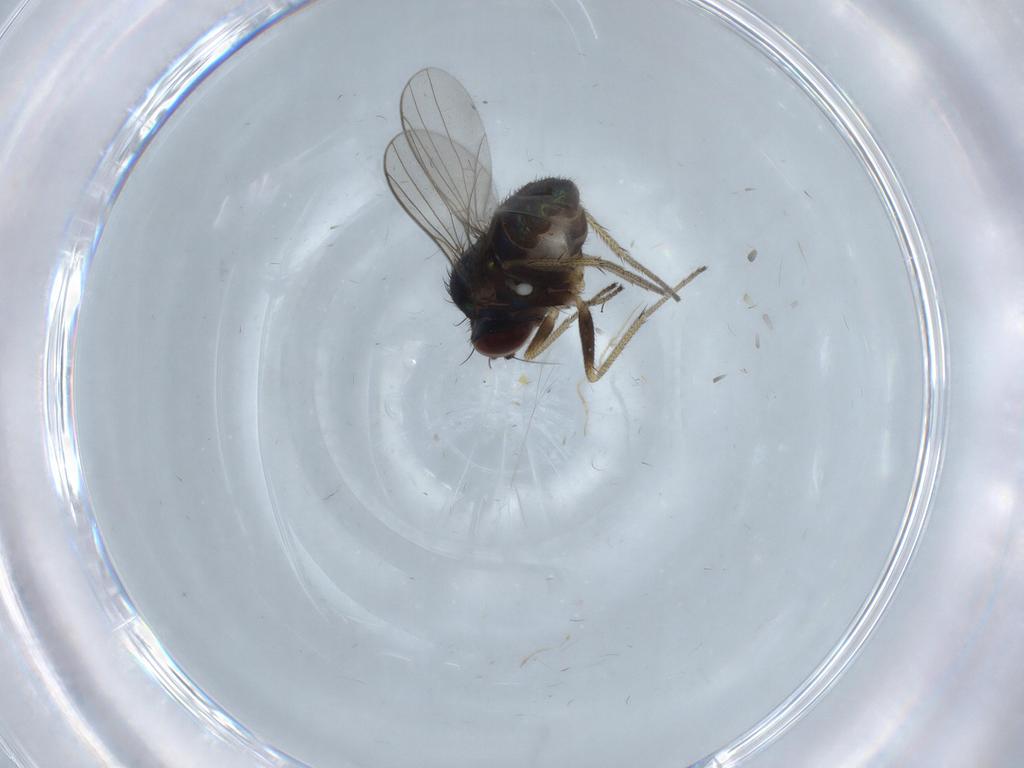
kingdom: Animalia
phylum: Arthropoda
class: Insecta
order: Diptera
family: Dolichopodidae
